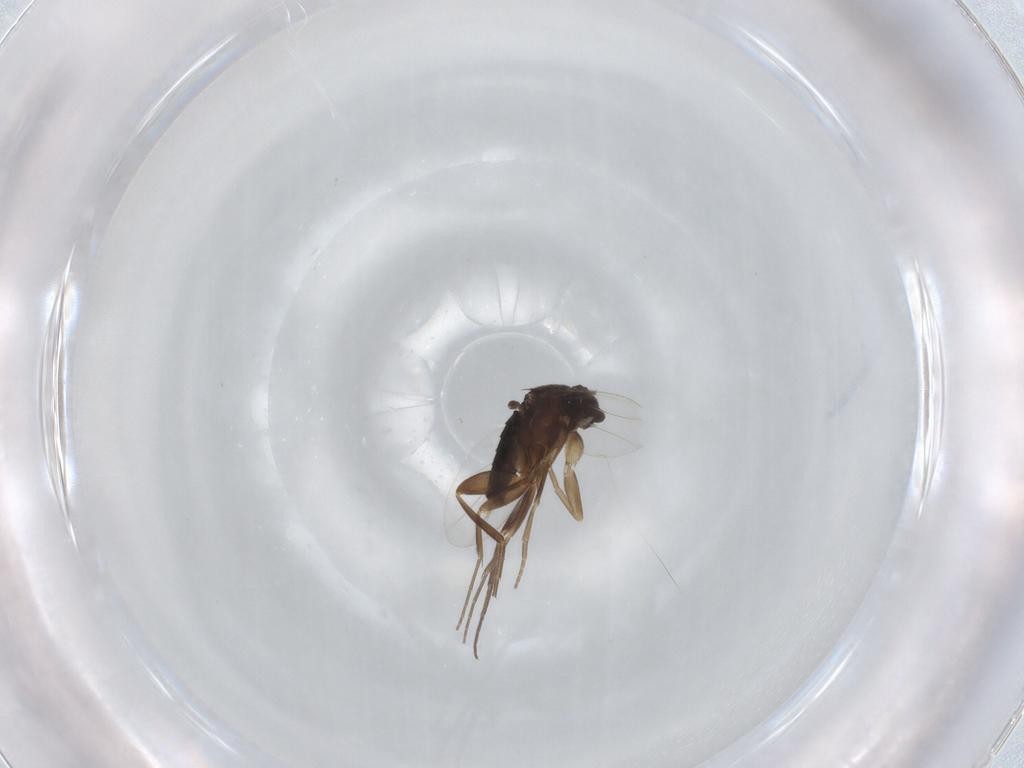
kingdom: Animalia
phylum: Arthropoda
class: Insecta
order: Diptera
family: Phoridae
